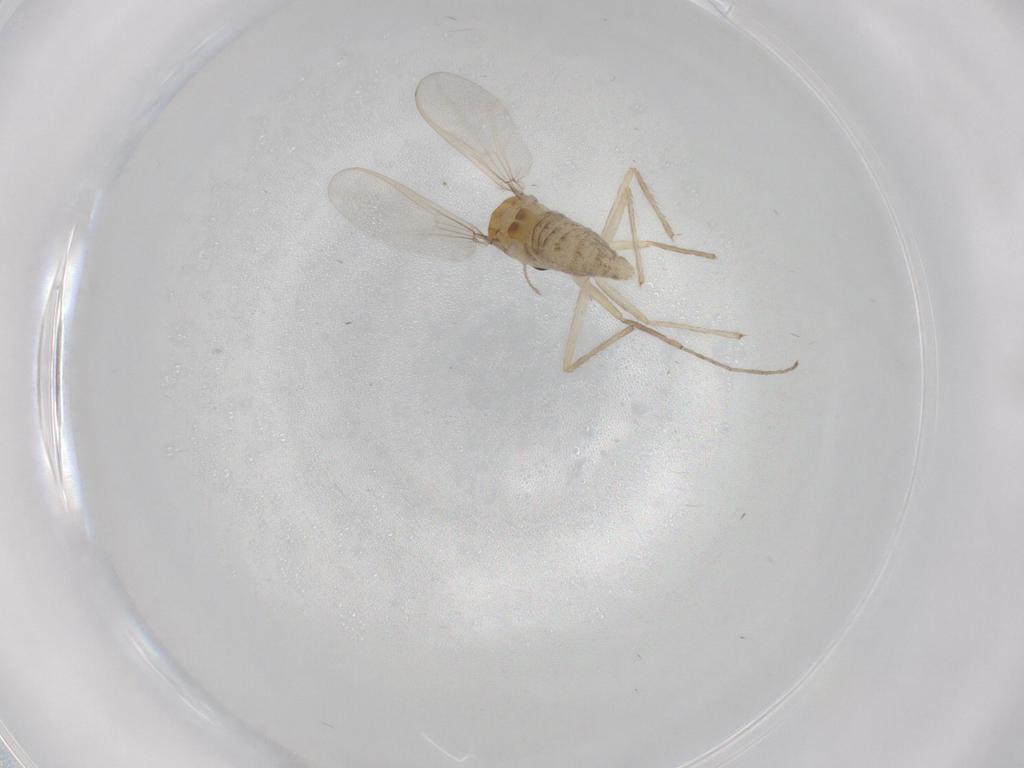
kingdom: Animalia
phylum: Arthropoda
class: Insecta
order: Diptera
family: Chironomidae
